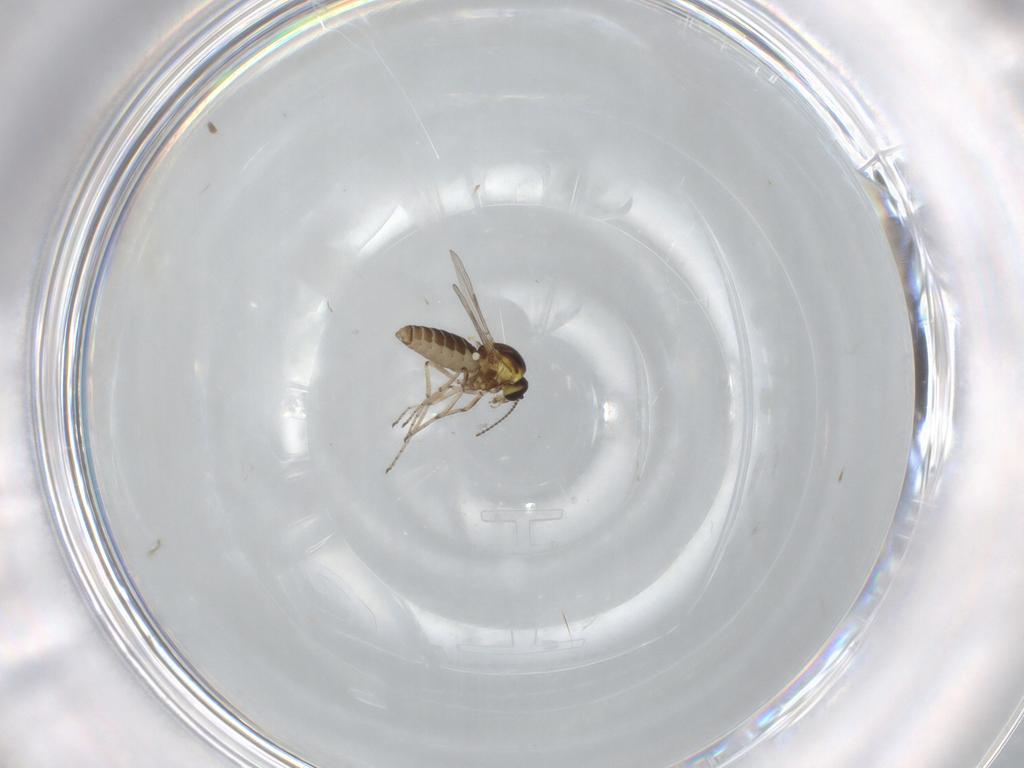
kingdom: Animalia
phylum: Arthropoda
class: Insecta
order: Diptera
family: Ceratopogonidae
